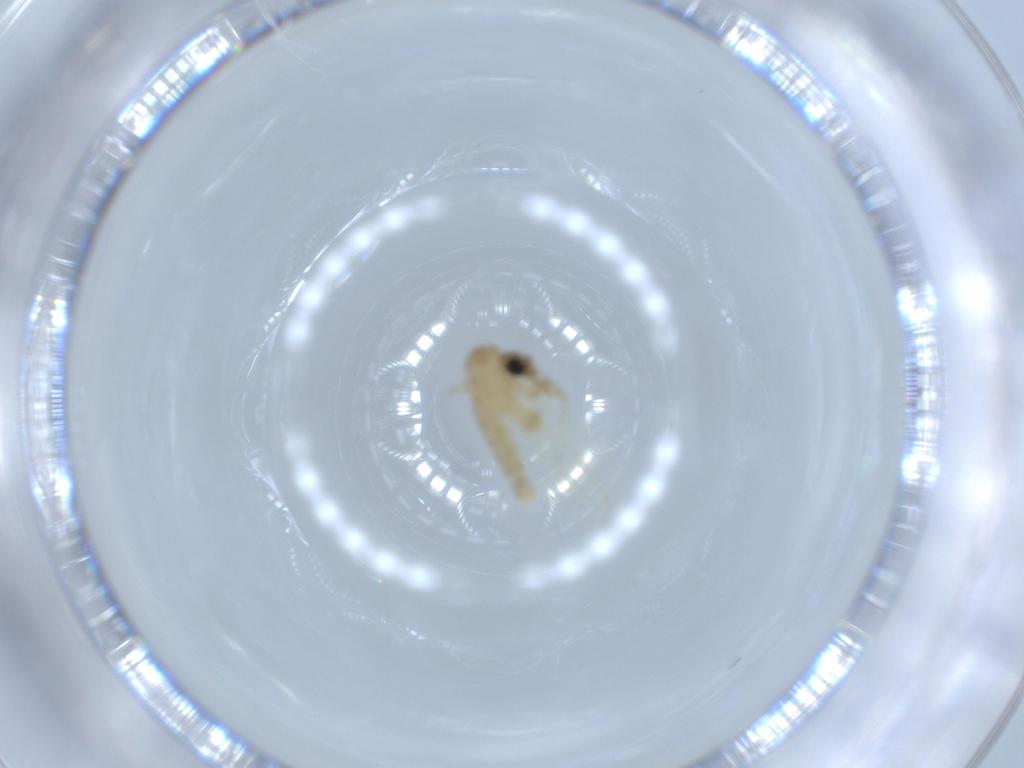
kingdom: Animalia
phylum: Arthropoda
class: Insecta
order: Diptera
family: Psychodidae
